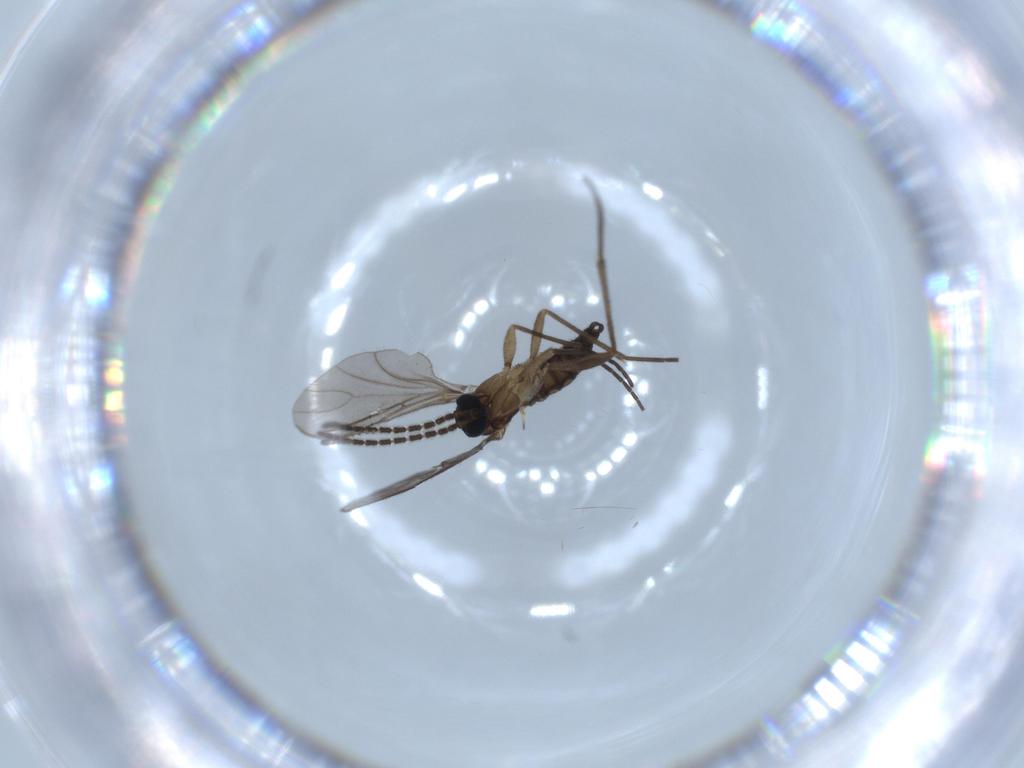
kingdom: Animalia
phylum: Arthropoda
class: Insecta
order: Diptera
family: Sciaridae
